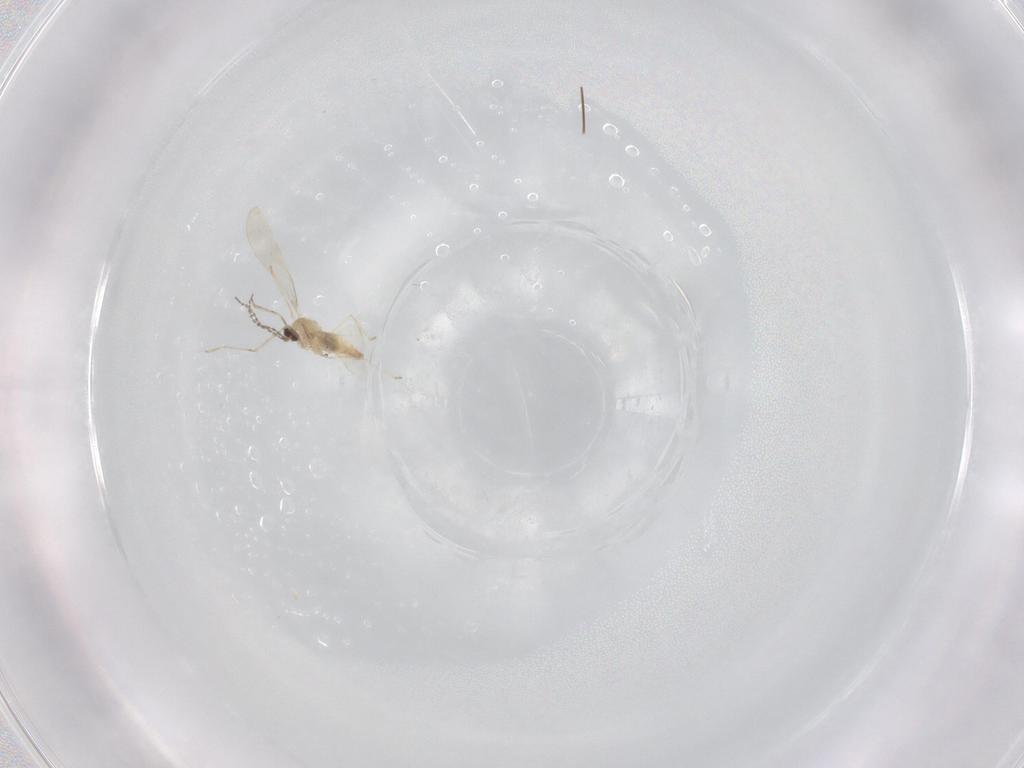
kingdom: Animalia
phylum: Arthropoda
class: Insecta
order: Diptera
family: Cecidomyiidae
